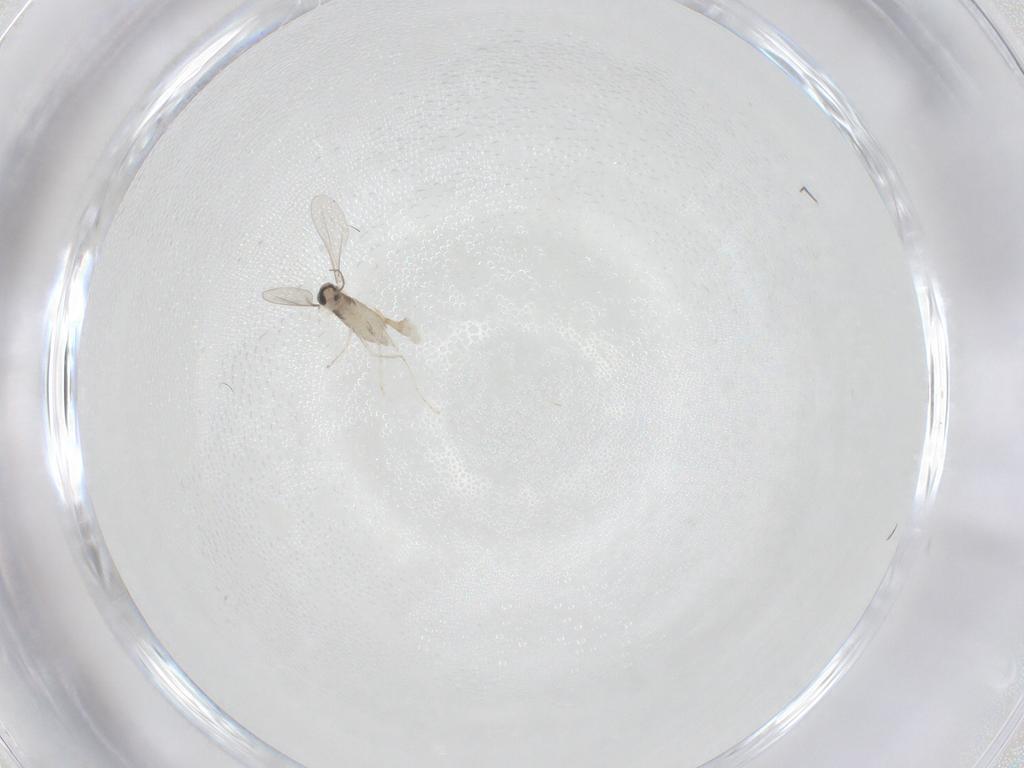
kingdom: Animalia
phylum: Arthropoda
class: Insecta
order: Diptera
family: Cecidomyiidae
